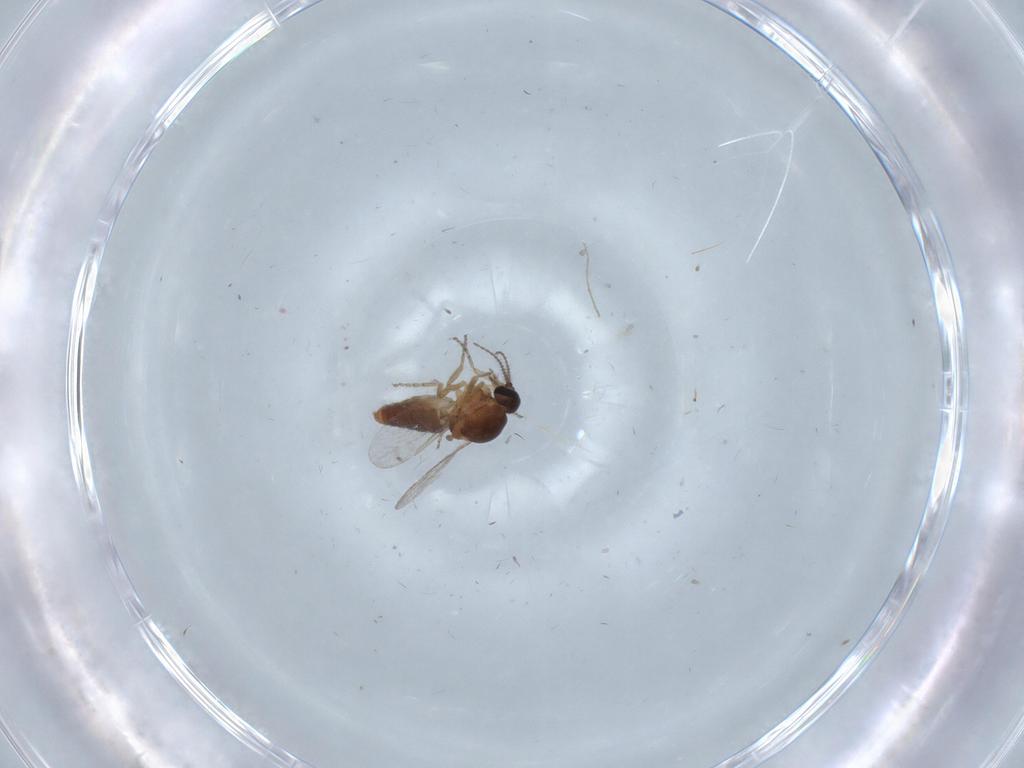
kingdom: Animalia
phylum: Arthropoda
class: Insecta
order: Diptera
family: Ceratopogonidae
